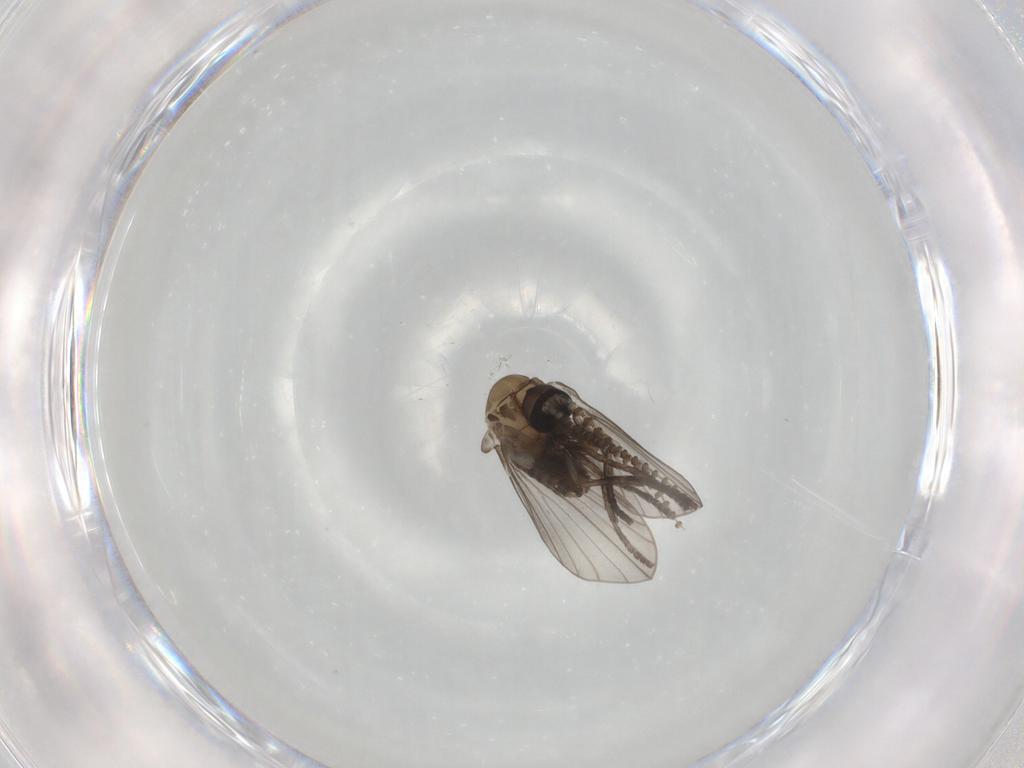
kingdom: Animalia
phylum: Arthropoda
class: Insecta
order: Diptera
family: Psychodidae
